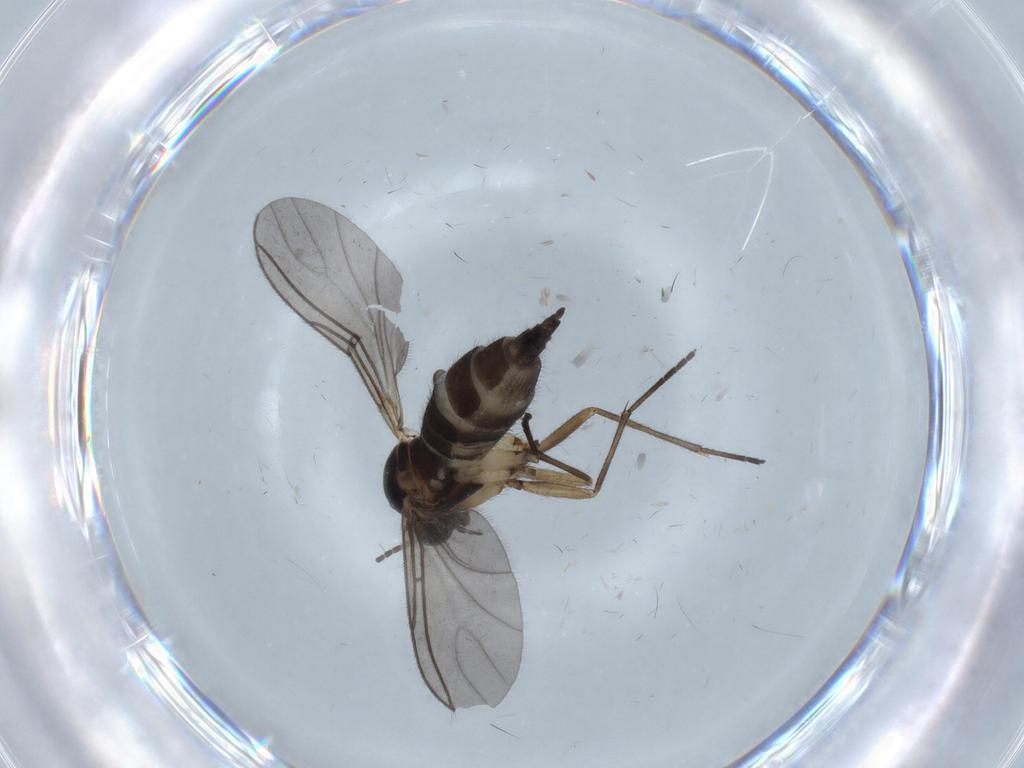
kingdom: Animalia
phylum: Arthropoda
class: Insecta
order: Diptera
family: Sciaridae
